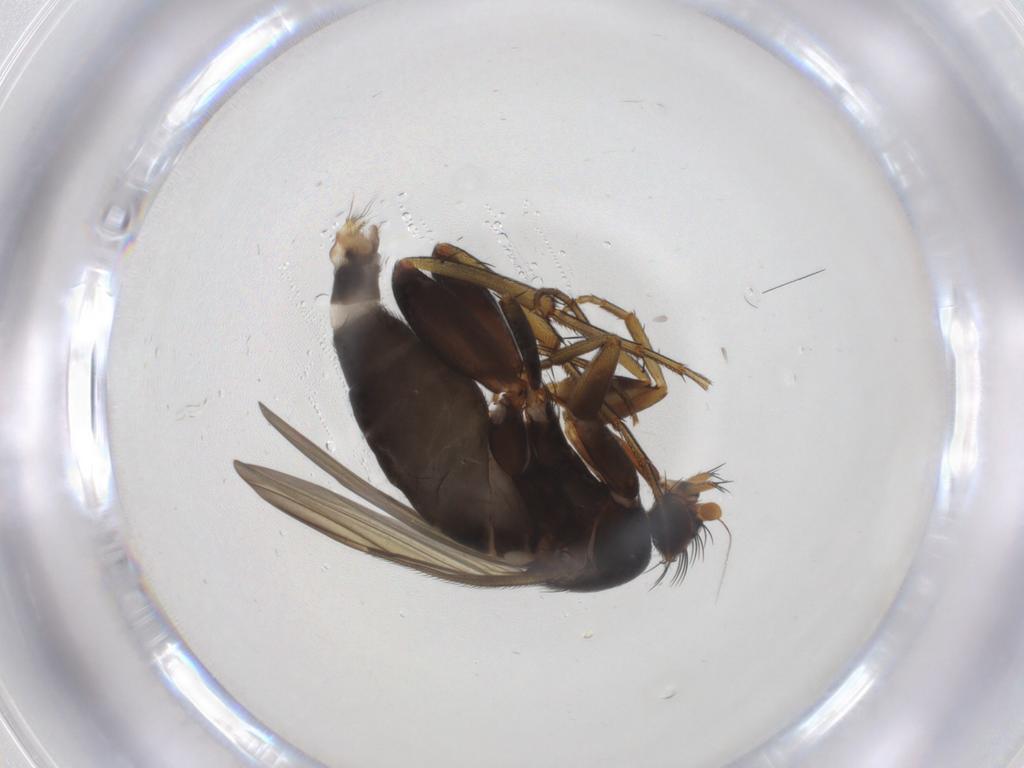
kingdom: Animalia
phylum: Arthropoda
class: Insecta
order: Diptera
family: Phoridae
